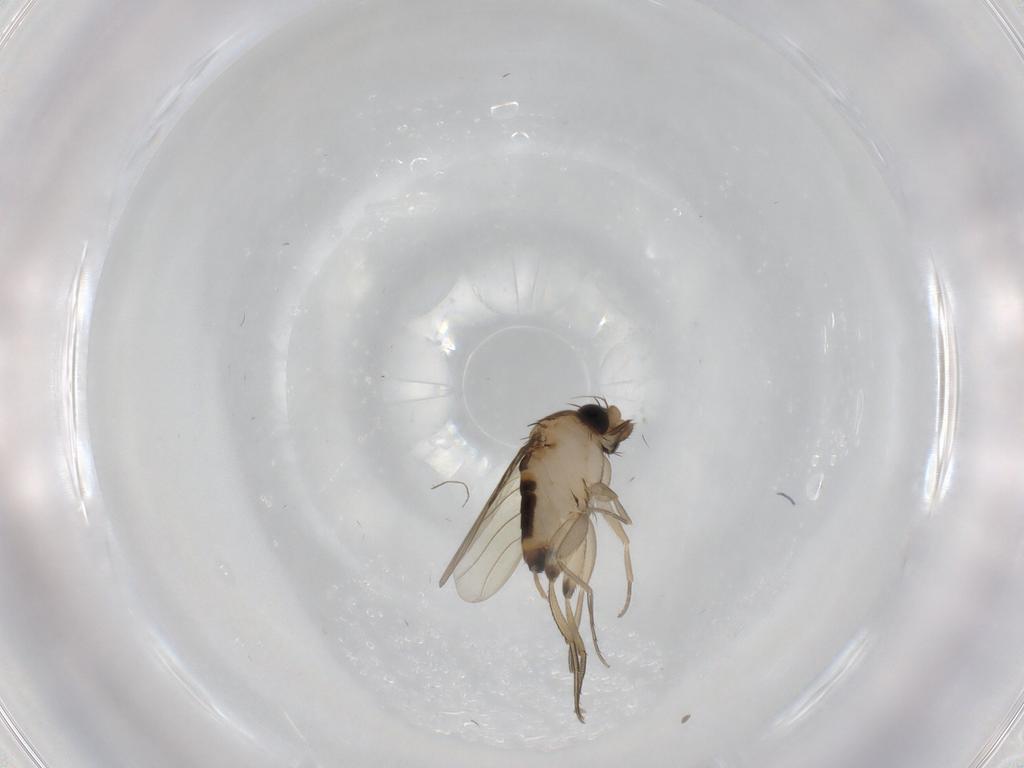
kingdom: Animalia
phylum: Arthropoda
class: Insecta
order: Diptera
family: Phoridae
